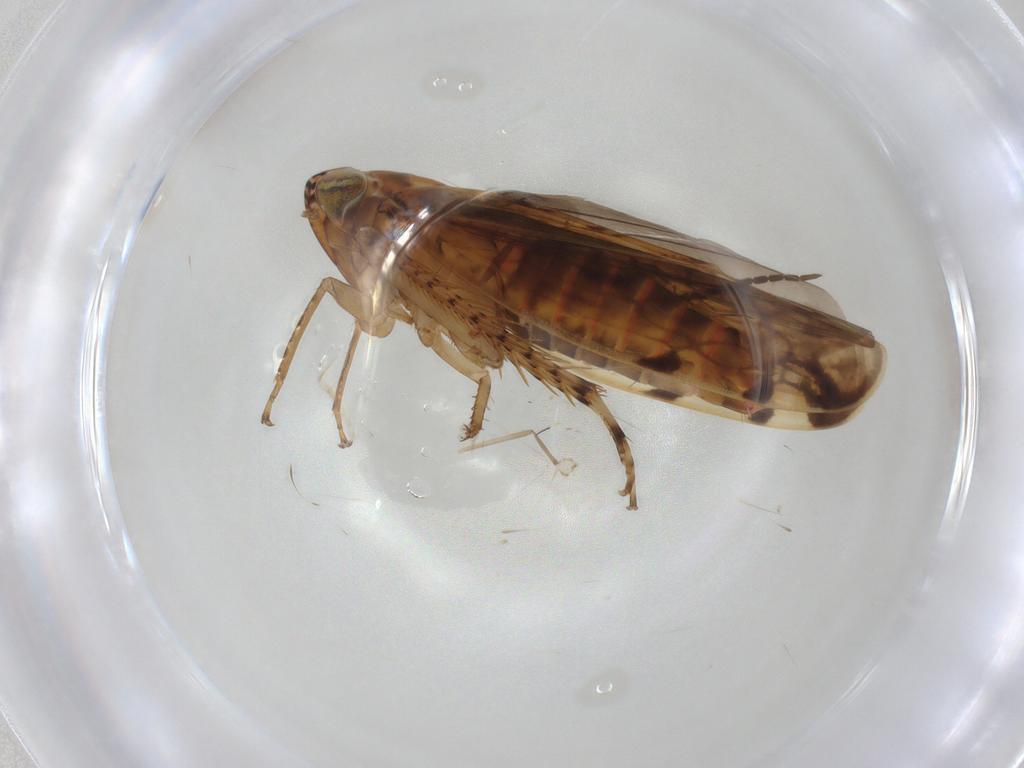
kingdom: Animalia
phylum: Arthropoda
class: Insecta
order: Hemiptera
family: Cicadellidae
